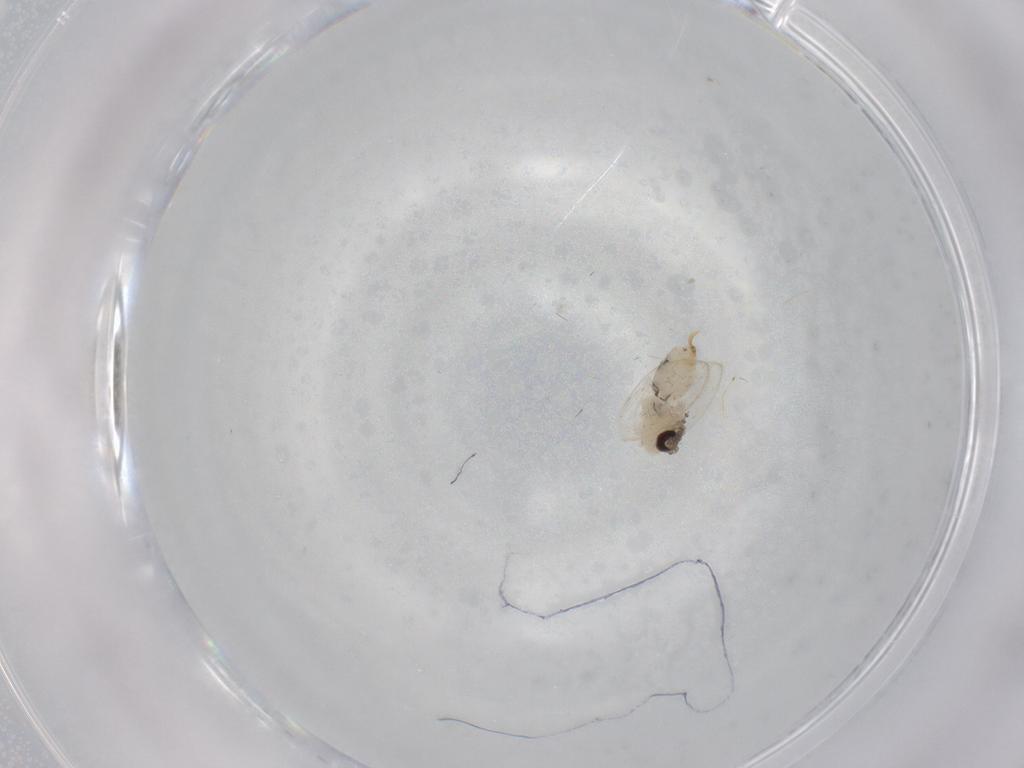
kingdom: Animalia
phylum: Arthropoda
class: Insecta
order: Diptera
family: Psychodidae
